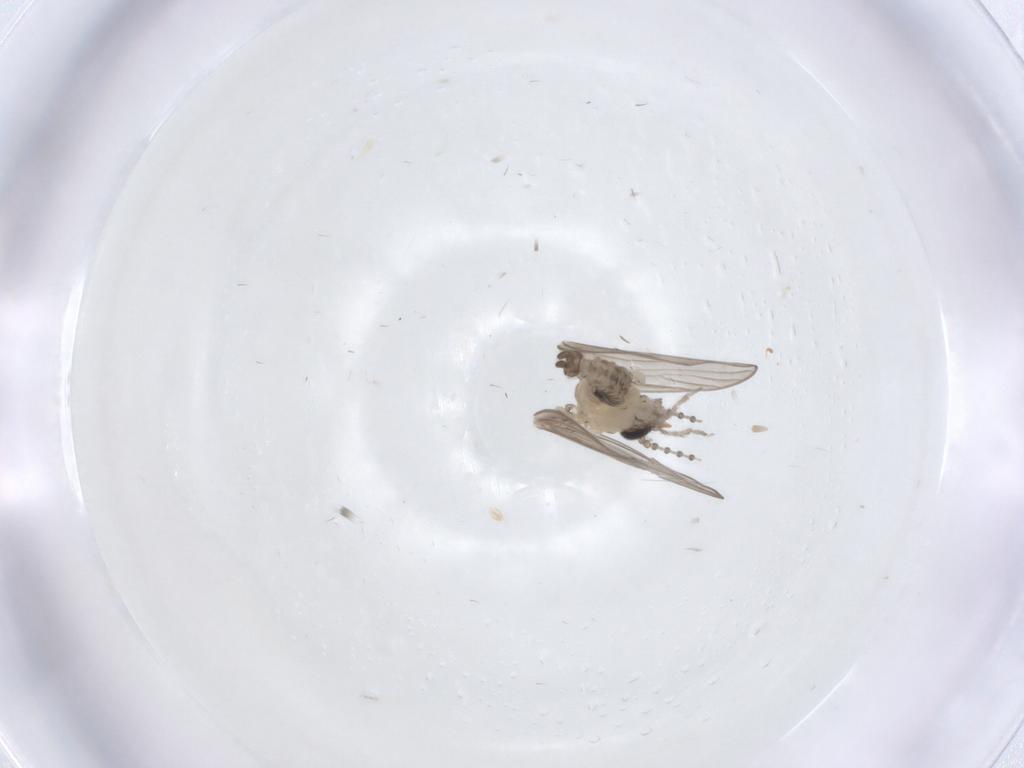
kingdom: Animalia
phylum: Arthropoda
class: Insecta
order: Diptera
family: Psychodidae
